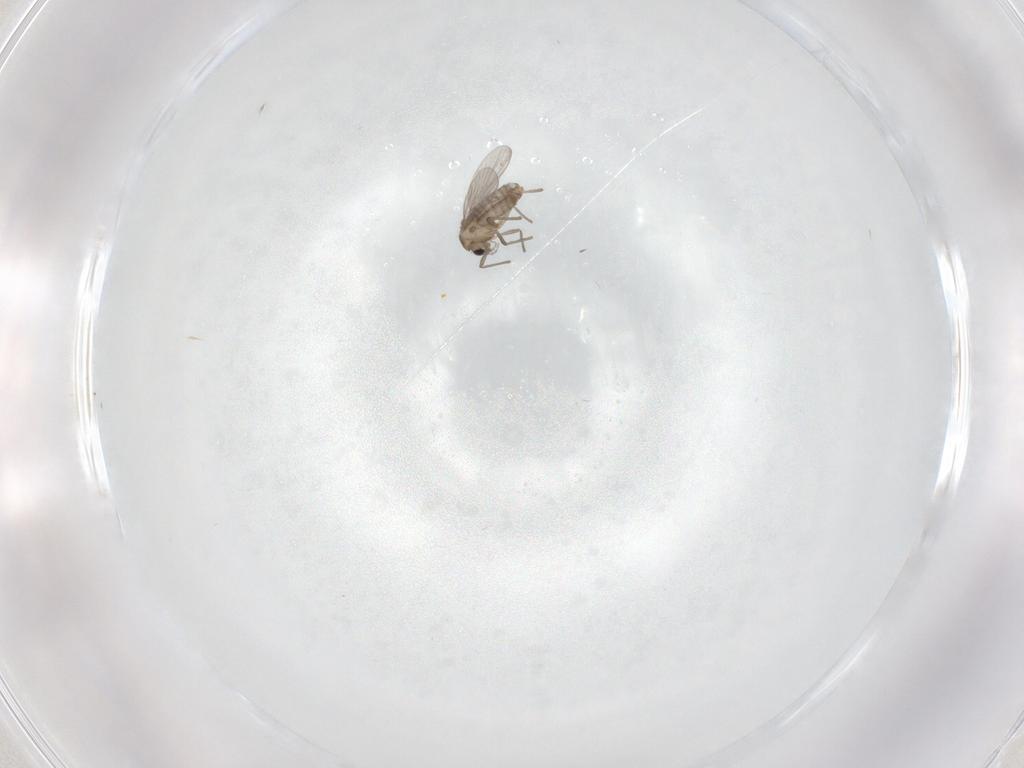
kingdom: Animalia
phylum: Arthropoda
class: Insecta
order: Diptera
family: Chironomidae
